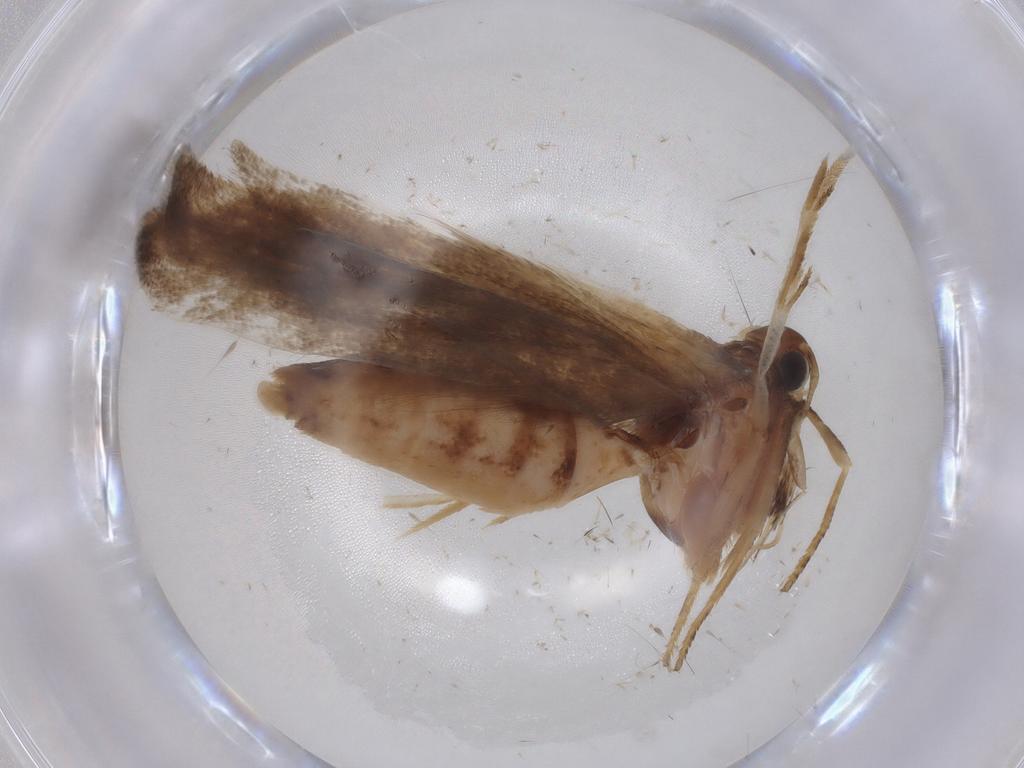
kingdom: Animalia
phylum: Arthropoda
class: Insecta
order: Lepidoptera
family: Gelechiidae
